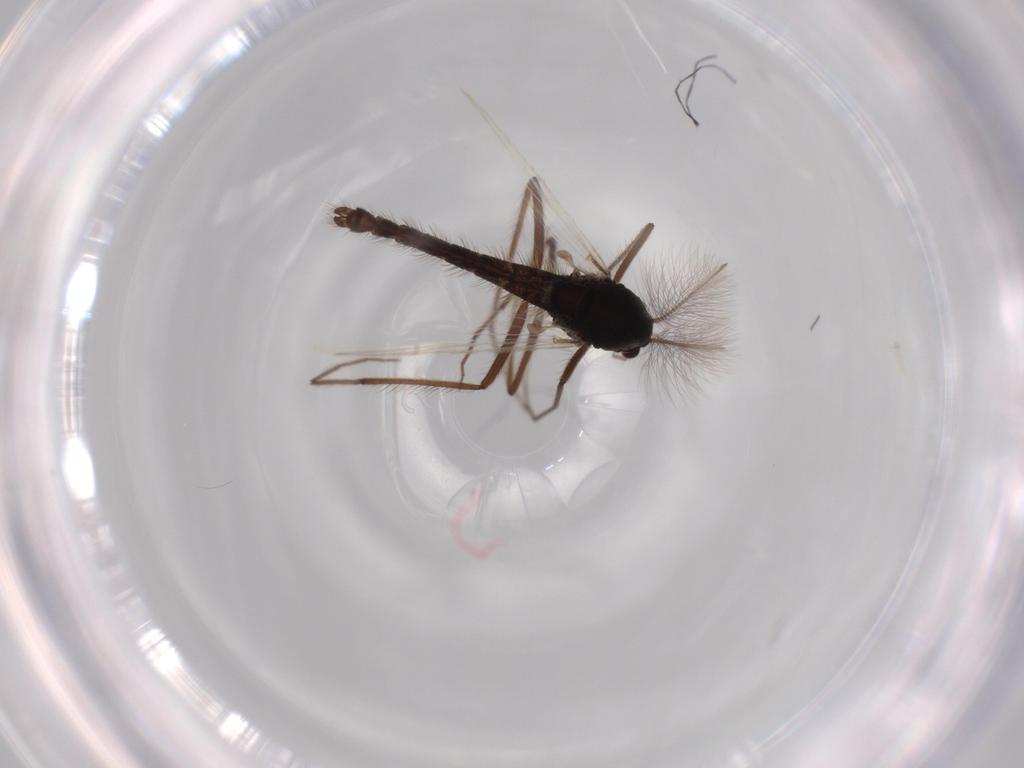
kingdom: Animalia
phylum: Arthropoda
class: Insecta
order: Diptera
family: Chironomidae
